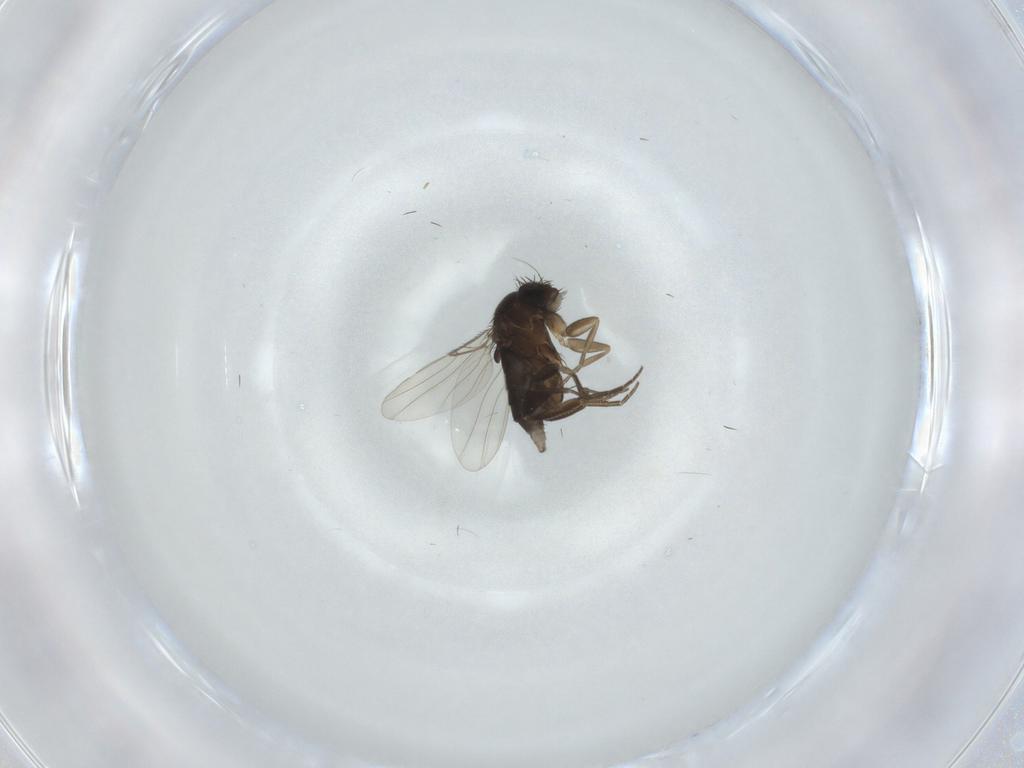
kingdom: Animalia
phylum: Arthropoda
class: Insecta
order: Diptera
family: Phoridae
